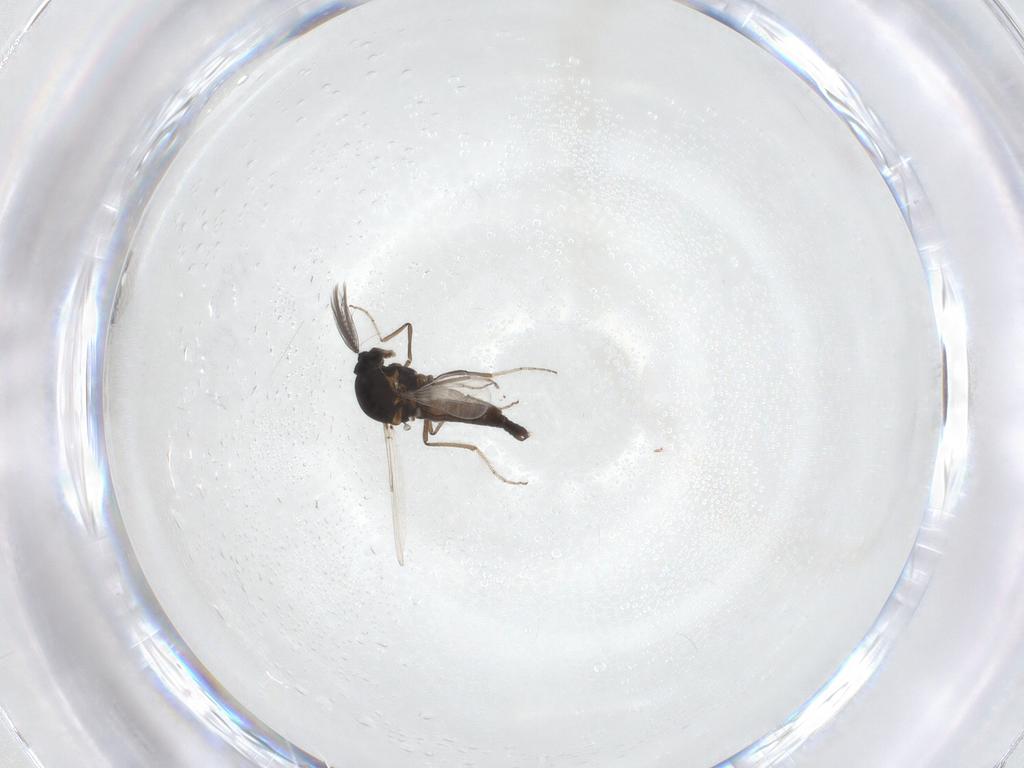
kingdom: Animalia
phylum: Arthropoda
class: Insecta
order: Diptera
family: Ceratopogonidae
